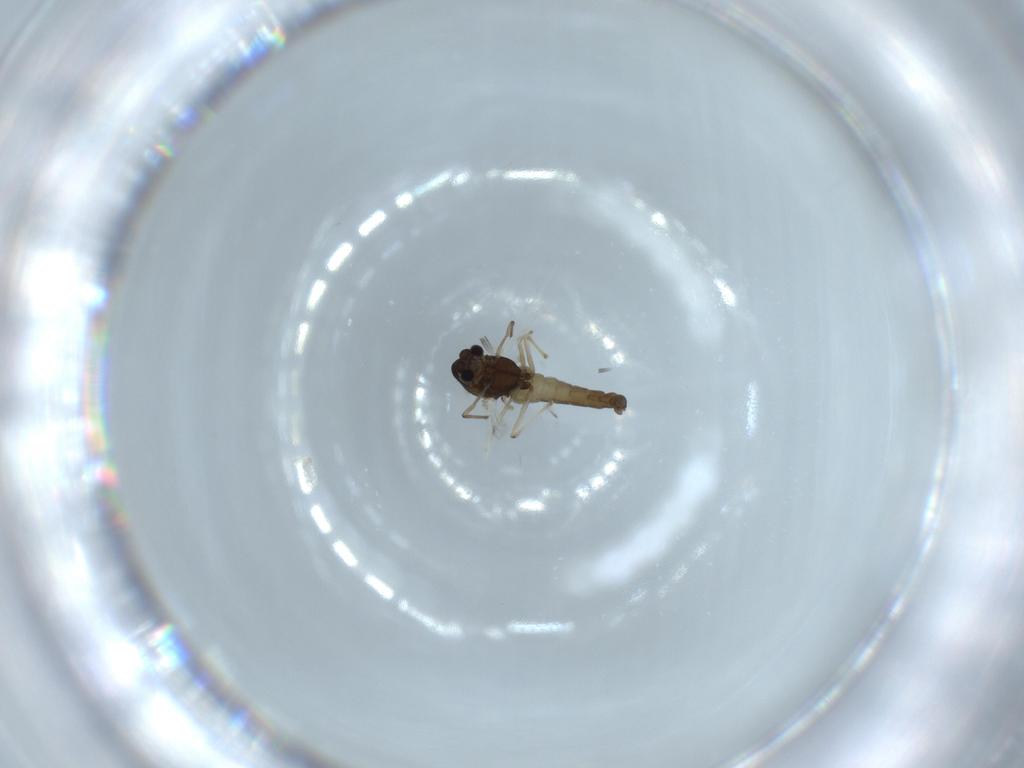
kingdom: Animalia
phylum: Arthropoda
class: Insecta
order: Diptera
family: Chironomidae
